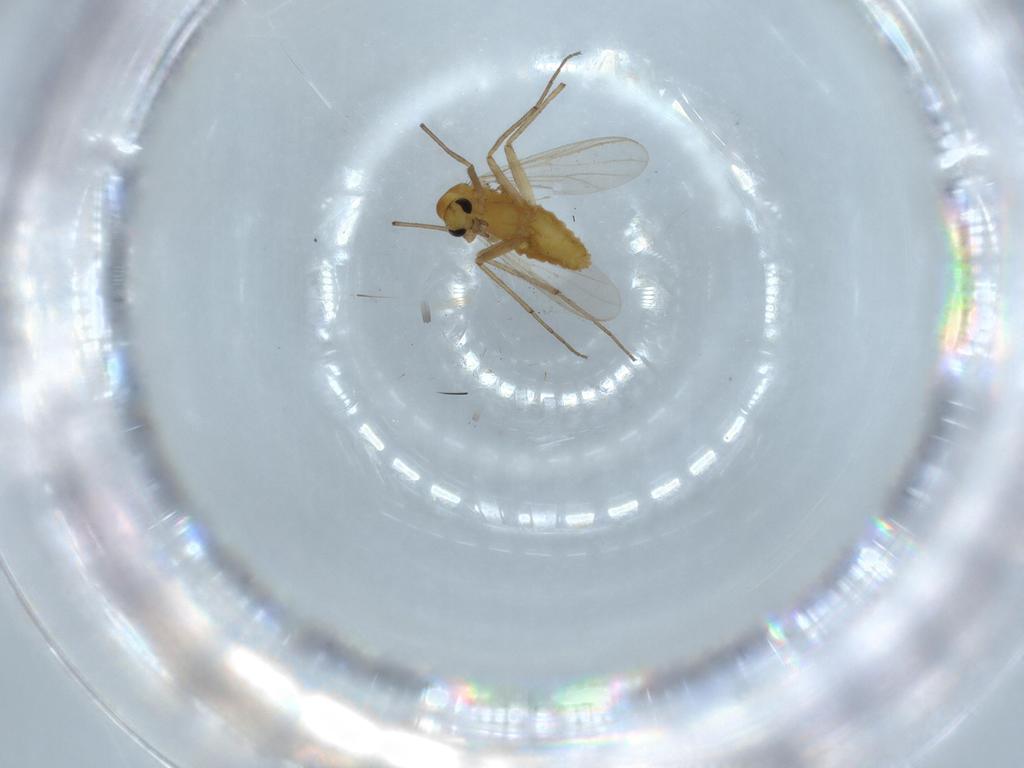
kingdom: Animalia
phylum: Arthropoda
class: Insecta
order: Diptera
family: Chironomidae
